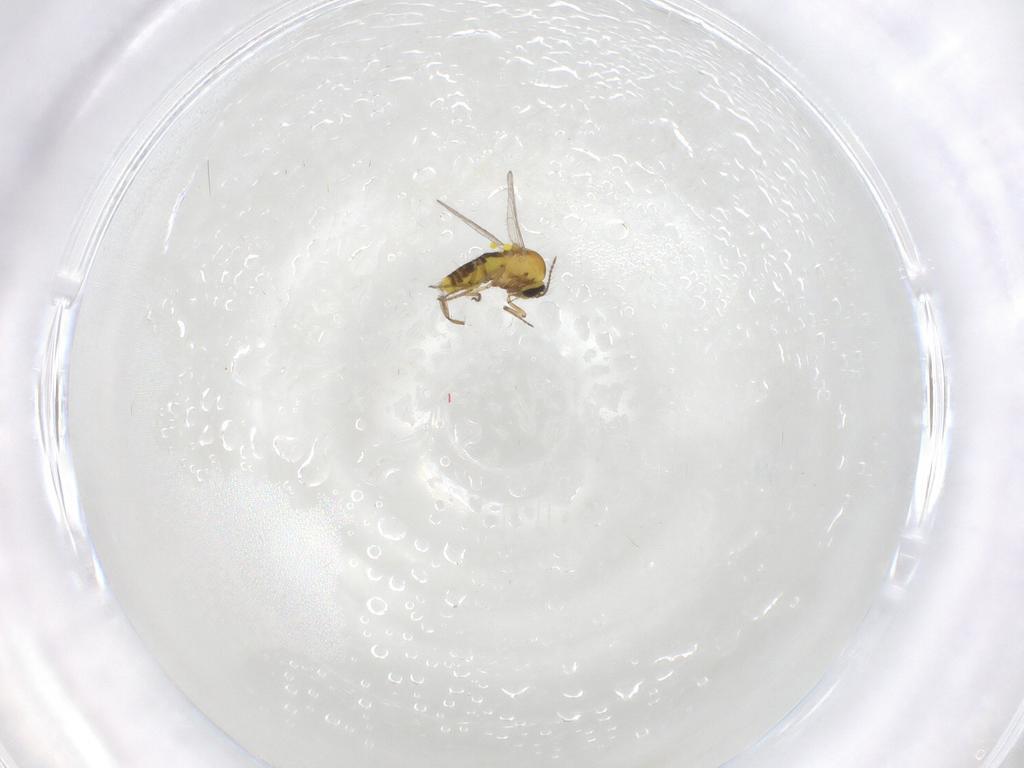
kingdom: Animalia
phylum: Arthropoda
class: Insecta
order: Diptera
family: Ceratopogonidae
